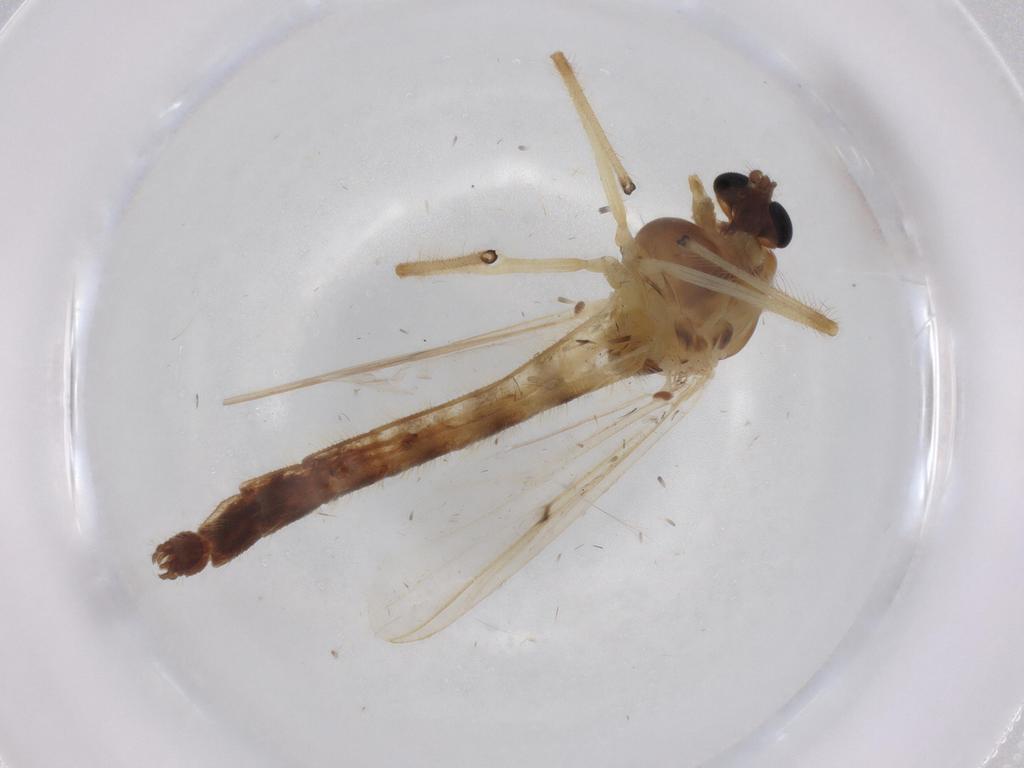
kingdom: Animalia
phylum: Arthropoda
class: Insecta
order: Diptera
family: Chironomidae
